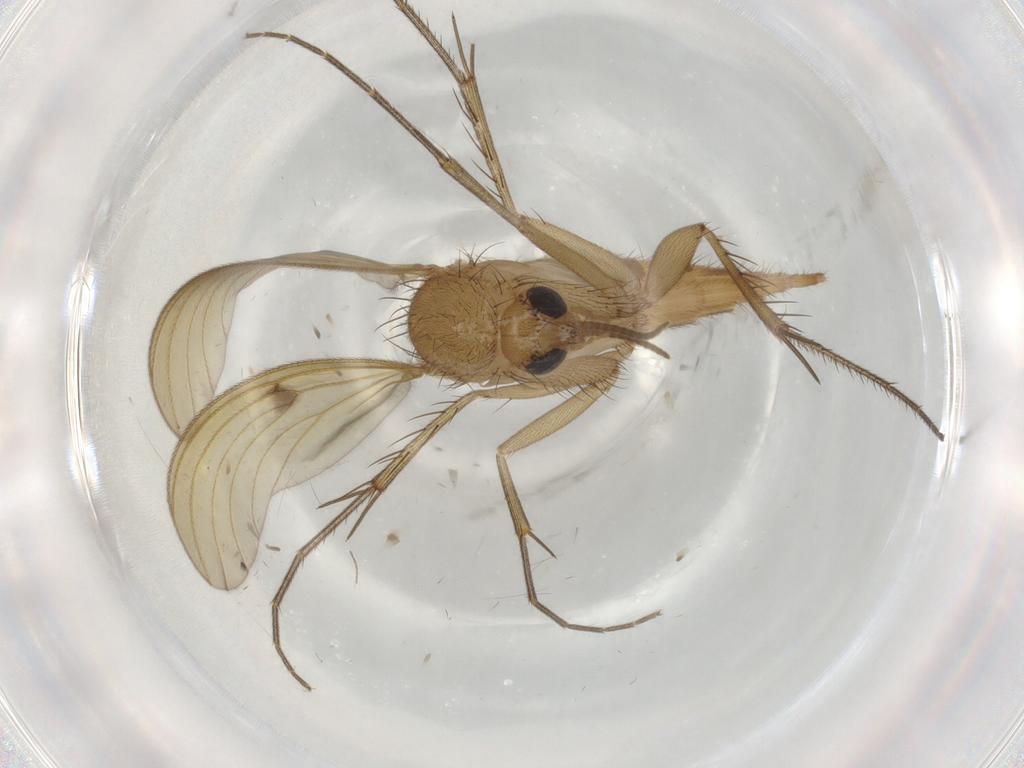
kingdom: Animalia
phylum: Arthropoda
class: Insecta
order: Diptera
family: Mycetophilidae
